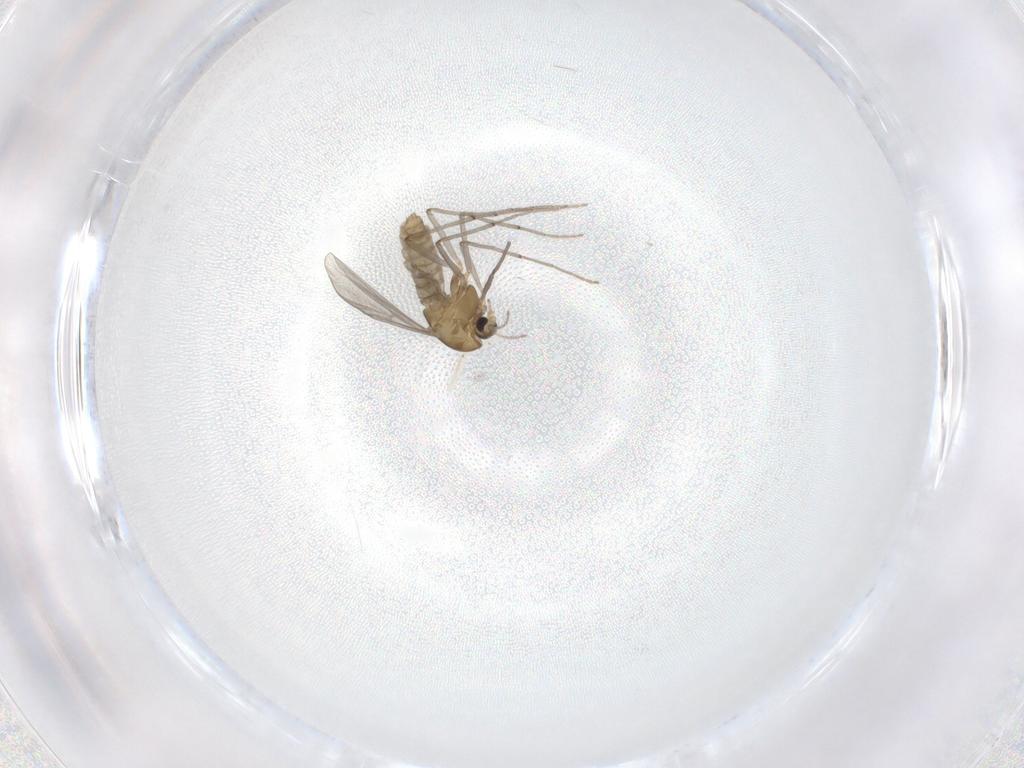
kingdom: Animalia
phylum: Arthropoda
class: Insecta
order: Diptera
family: Chironomidae
